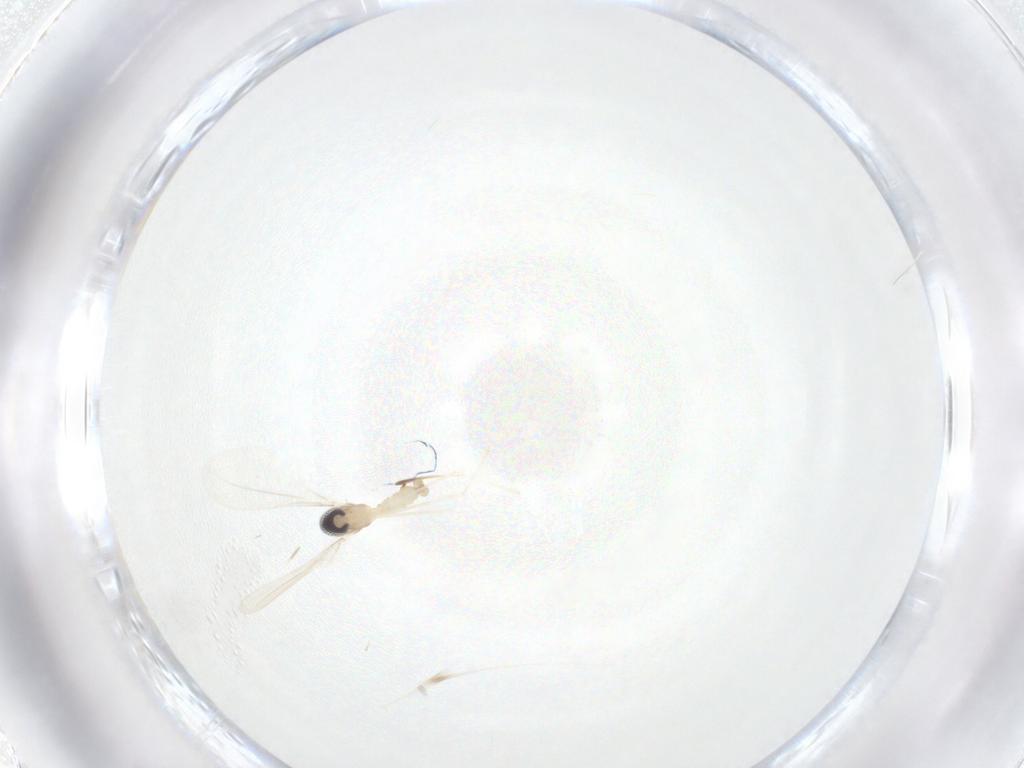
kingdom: Animalia
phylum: Arthropoda
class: Insecta
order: Diptera
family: Cecidomyiidae
